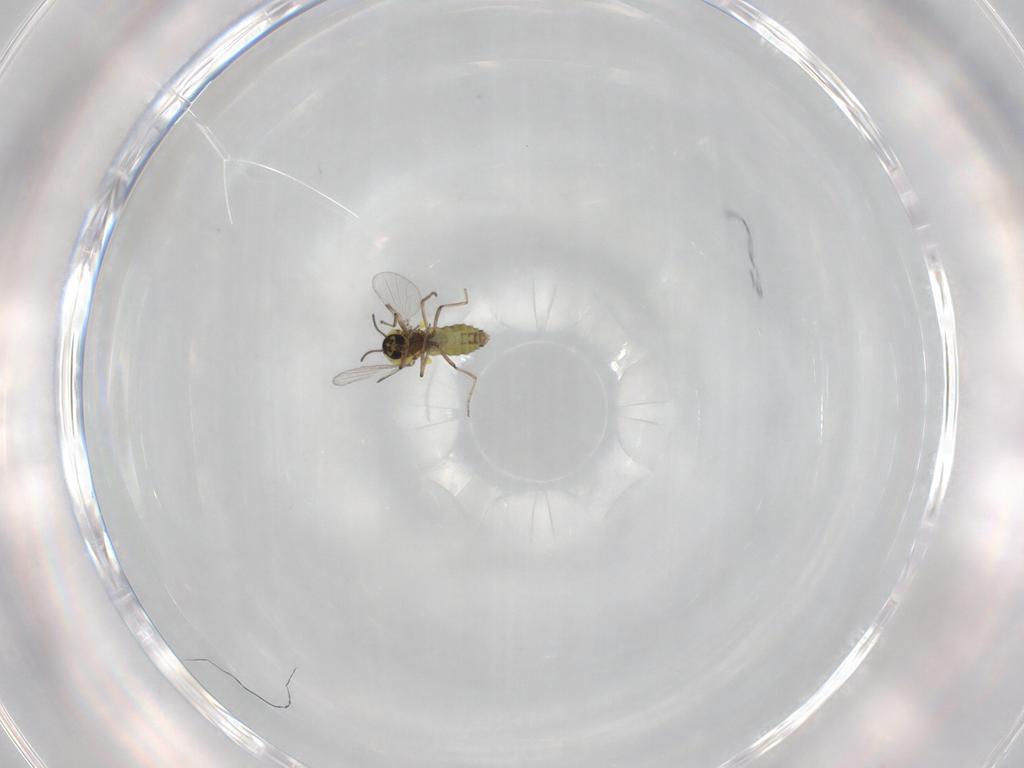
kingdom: Animalia
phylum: Arthropoda
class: Insecta
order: Diptera
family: Ceratopogonidae
